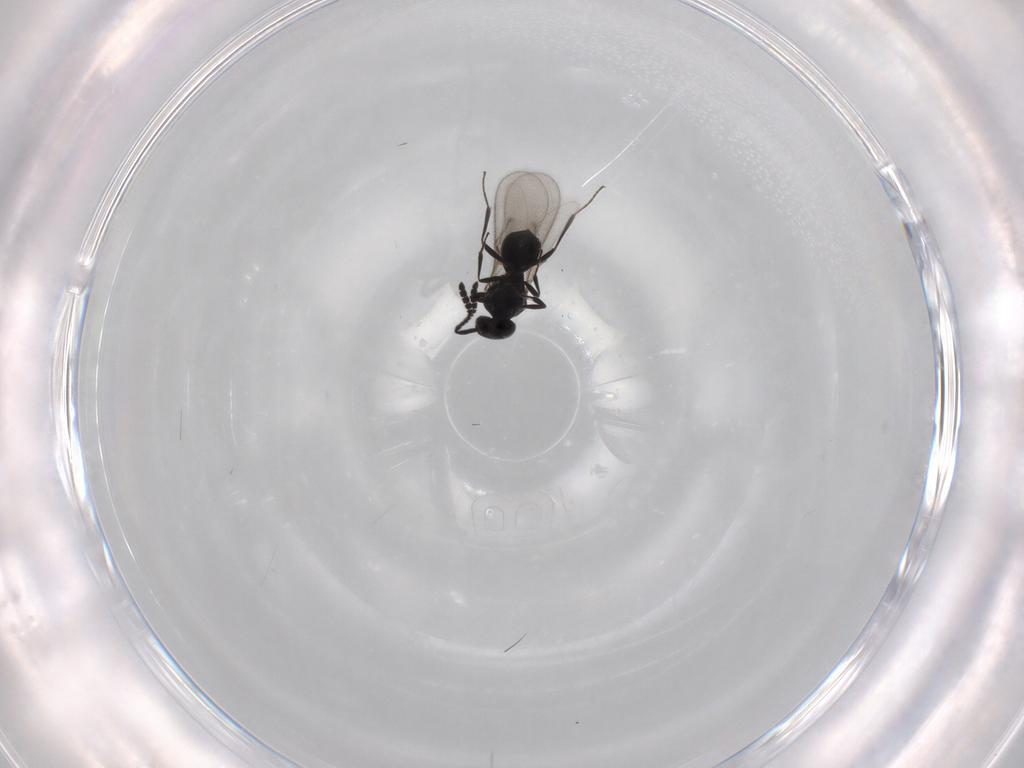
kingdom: Animalia
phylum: Arthropoda
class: Insecta
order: Hymenoptera
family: Scelionidae
